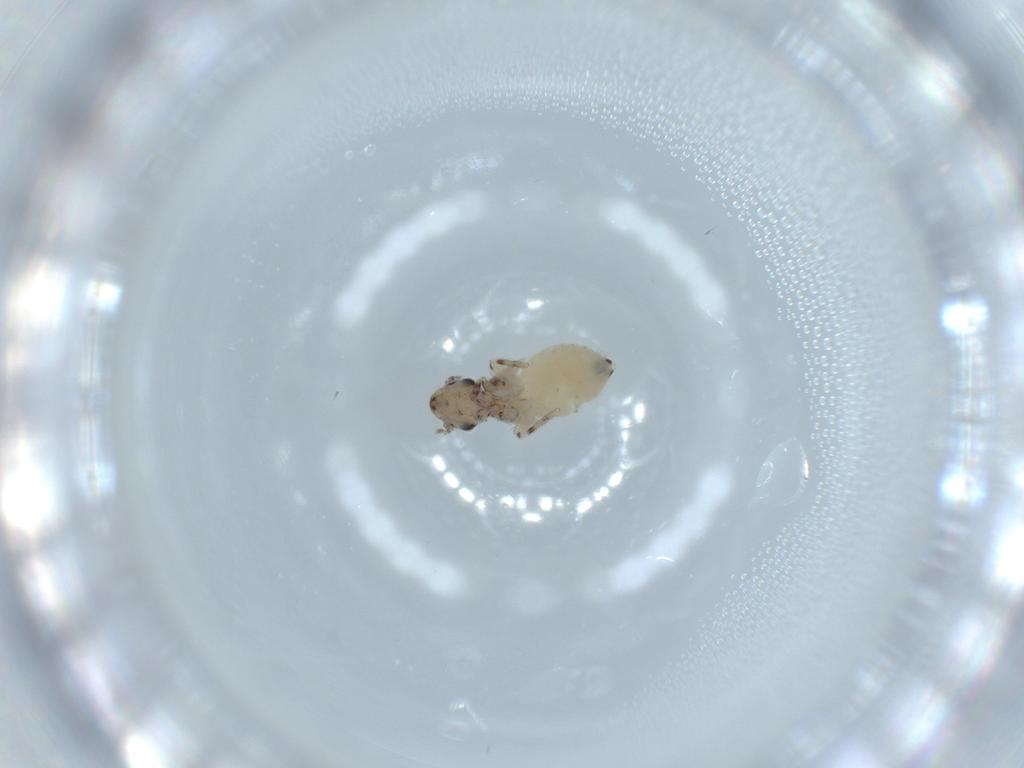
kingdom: Animalia
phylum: Arthropoda
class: Insecta
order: Psocodea
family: Lepidopsocidae
